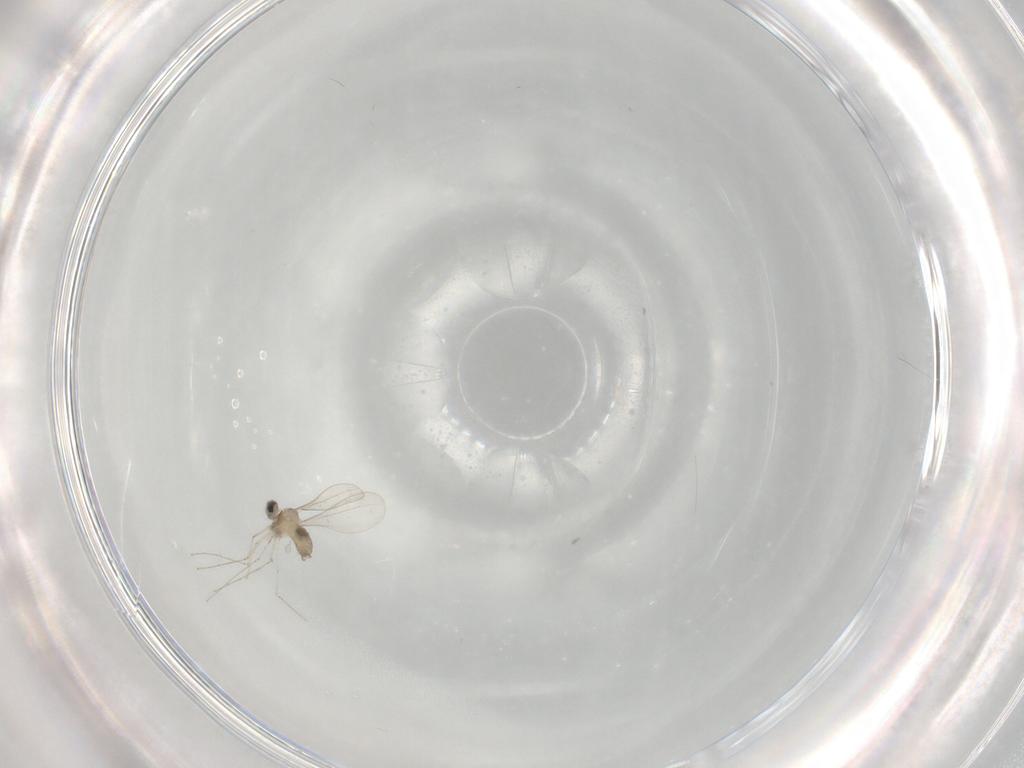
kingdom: Animalia
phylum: Arthropoda
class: Insecta
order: Diptera
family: Cecidomyiidae
